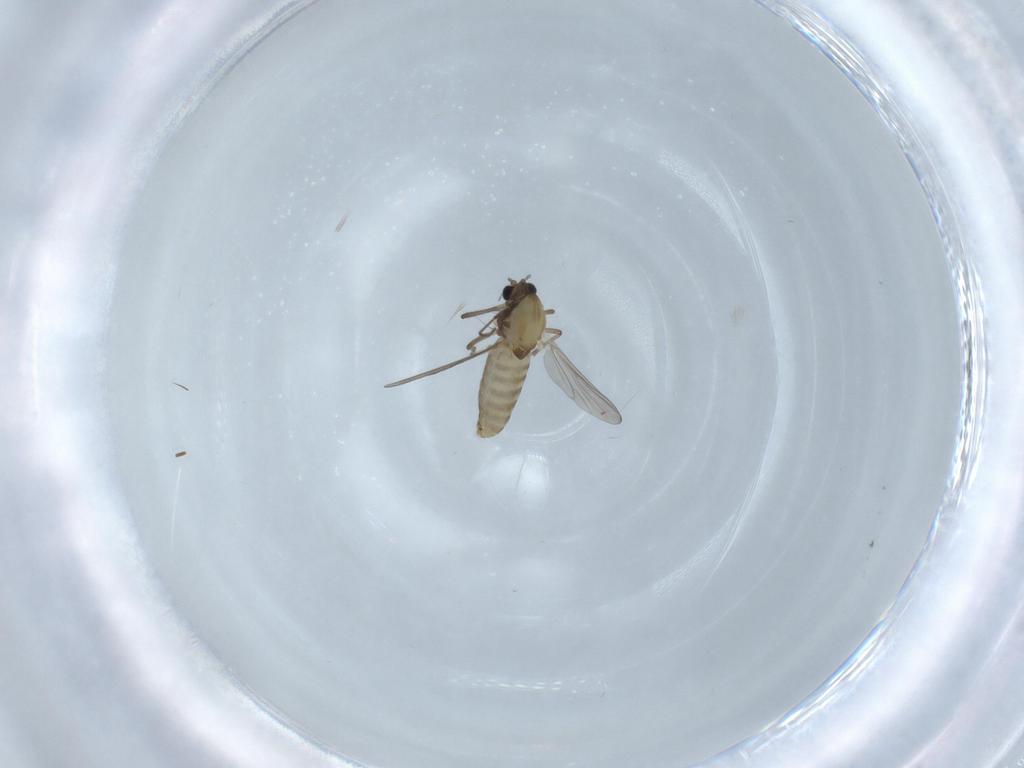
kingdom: Animalia
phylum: Arthropoda
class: Insecta
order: Diptera
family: Chironomidae
